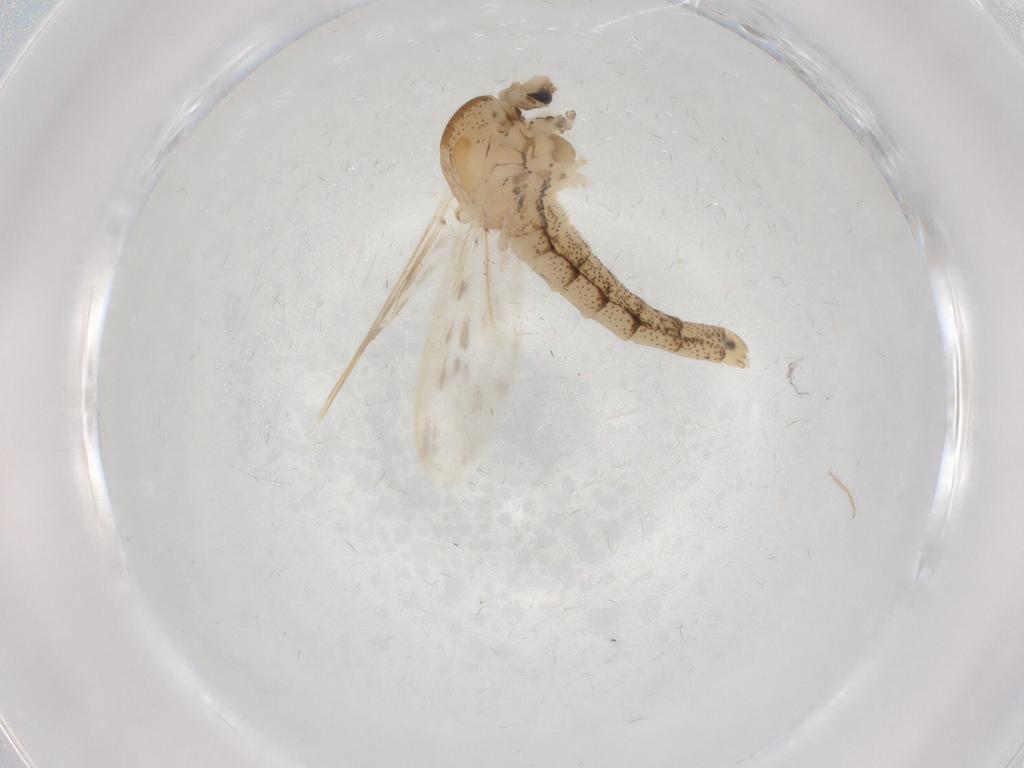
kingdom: Animalia
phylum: Arthropoda
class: Insecta
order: Diptera
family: Chaoboridae
